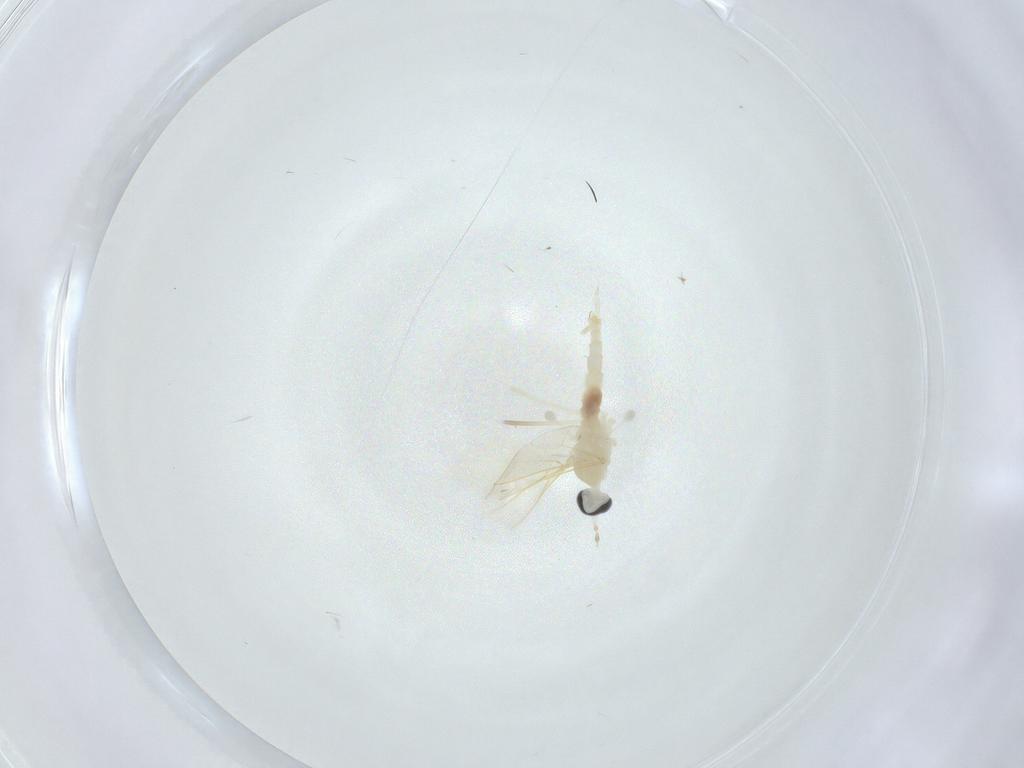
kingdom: Animalia
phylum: Arthropoda
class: Insecta
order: Diptera
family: Cecidomyiidae
